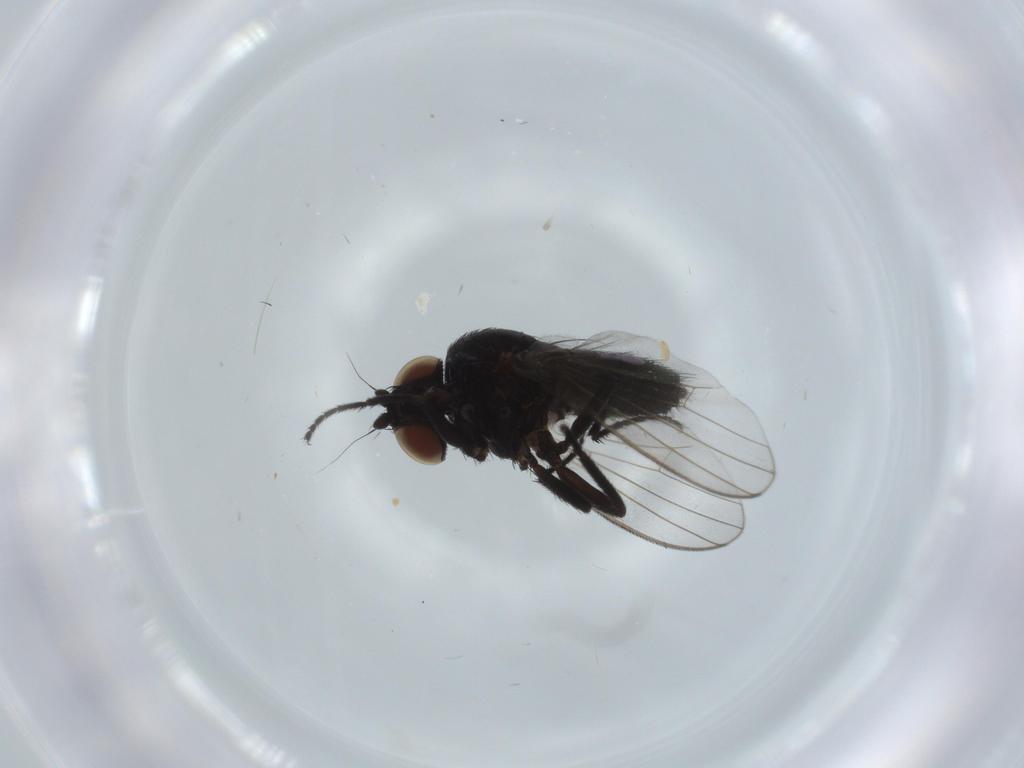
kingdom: Animalia
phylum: Arthropoda
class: Insecta
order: Diptera
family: Milichiidae
